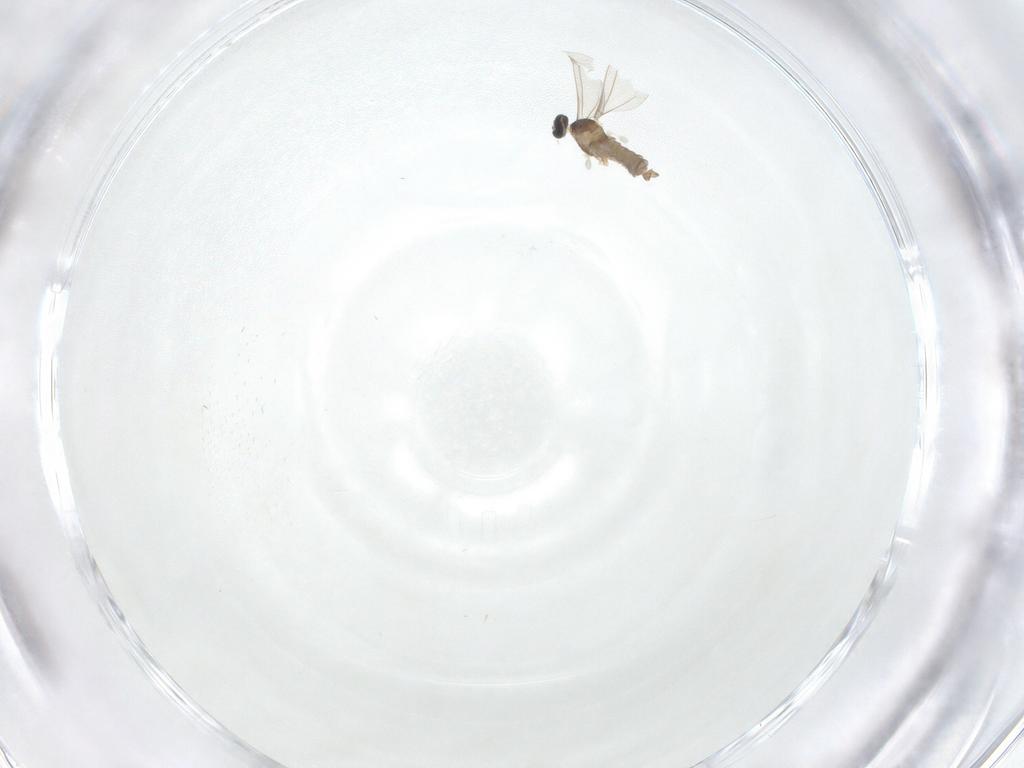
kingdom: Animalia
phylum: Arthropoda
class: Insecta
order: Diptera
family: Cecidomyiidae
